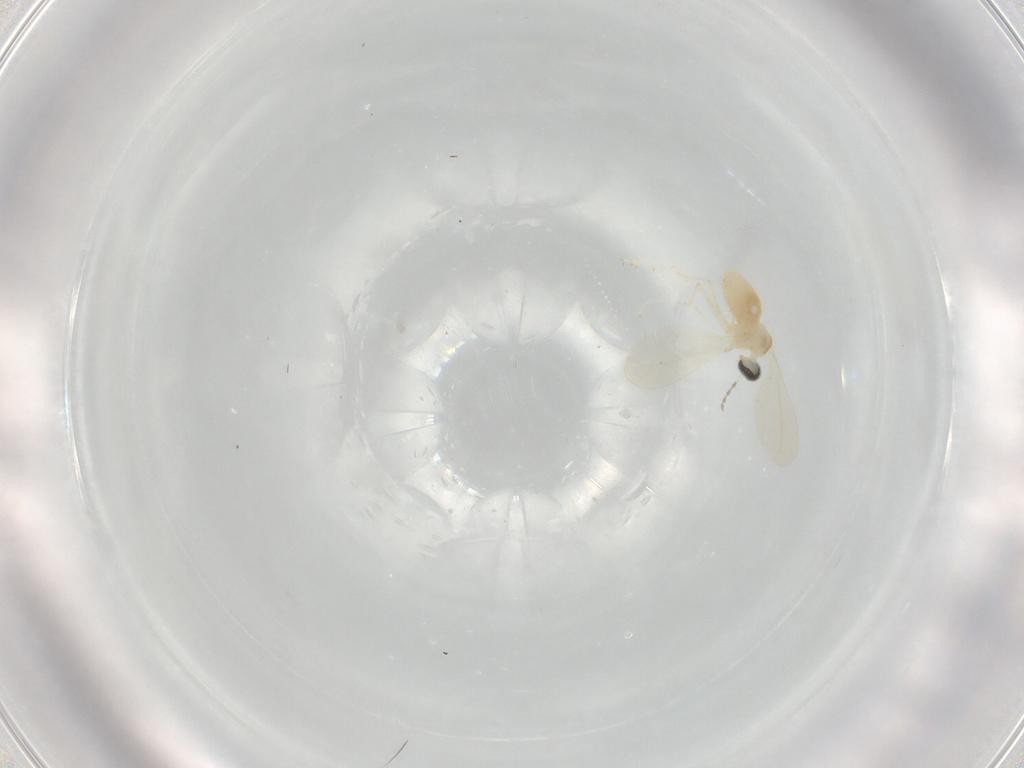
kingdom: Animalia
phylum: Arthropoda
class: Insecta
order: Diptera
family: Cecidomyiidae
